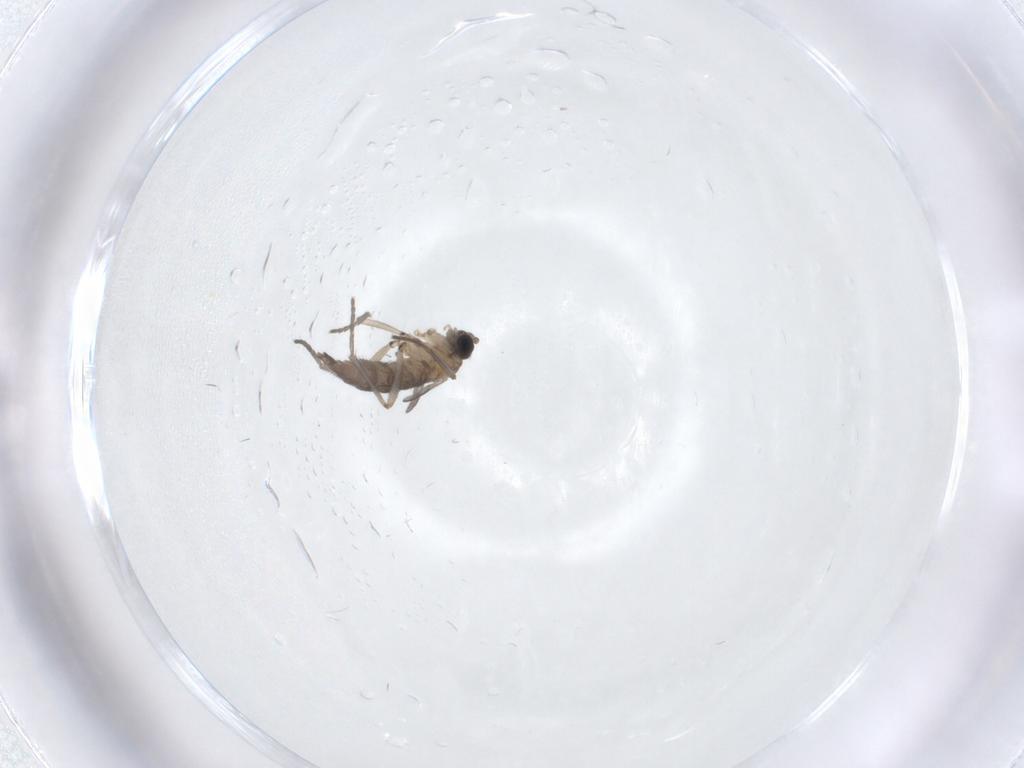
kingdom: Animalia
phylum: Arthropoda
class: Insecta
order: Diptera
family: Sciaridae
